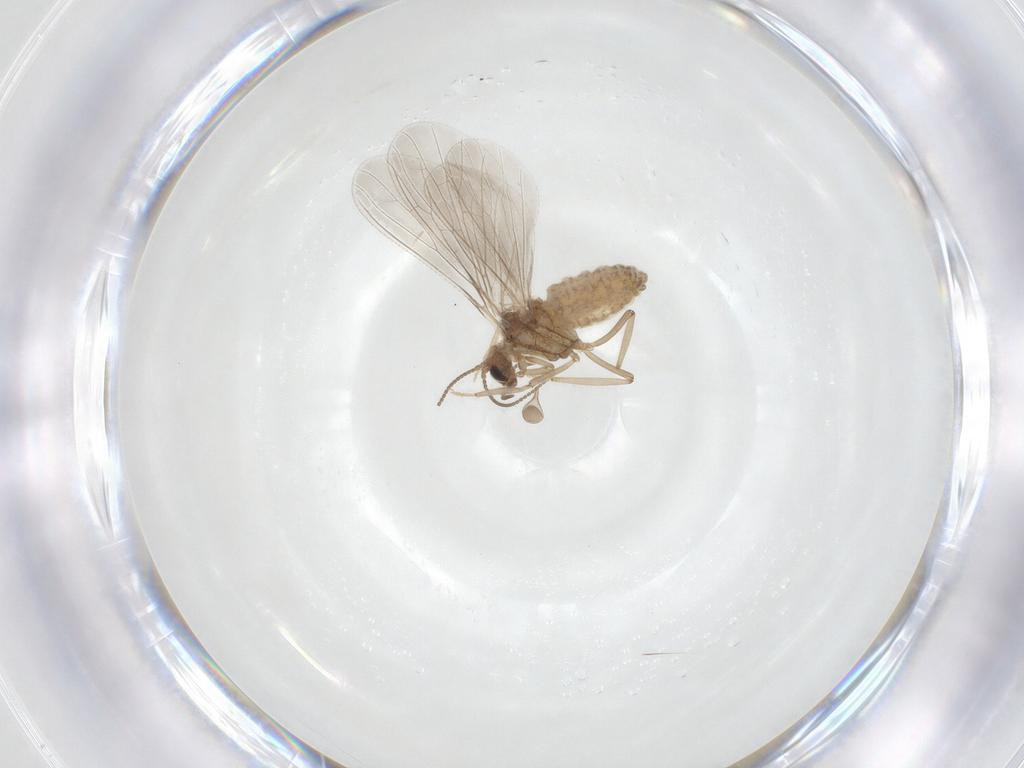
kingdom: Animalia
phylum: Arthropoda
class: Insecta
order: Neuroptera
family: Coniopterygidae
